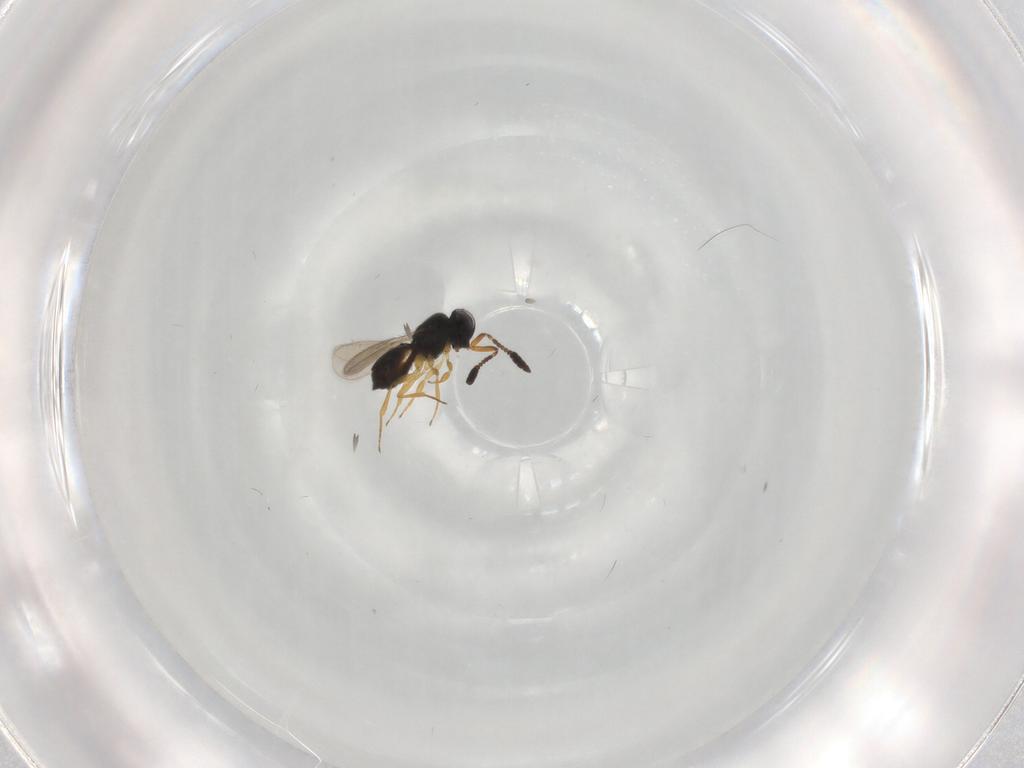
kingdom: Animalia
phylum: Arthropoda
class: Insecta
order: Hymenoptera
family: Scelionidae
